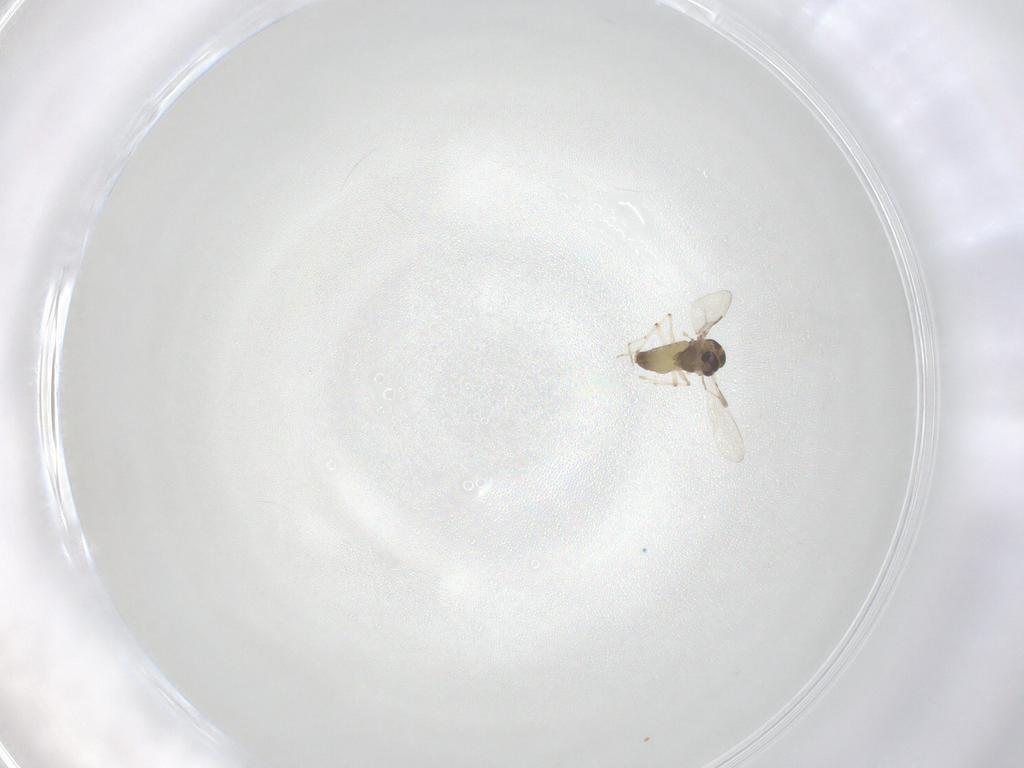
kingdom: Animalia
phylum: Arthropoda
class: Insecta
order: Diptera
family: Chironomidae
